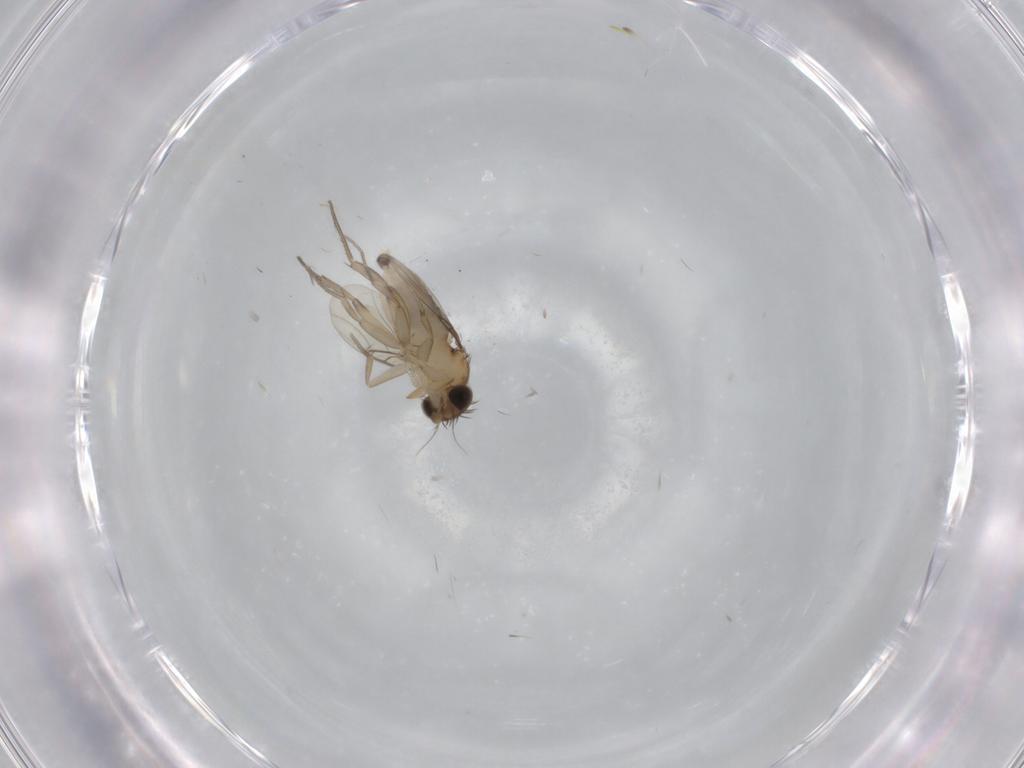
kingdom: Animalia
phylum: Arthropoda
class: Insecta
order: Diptera
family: Phoridae
